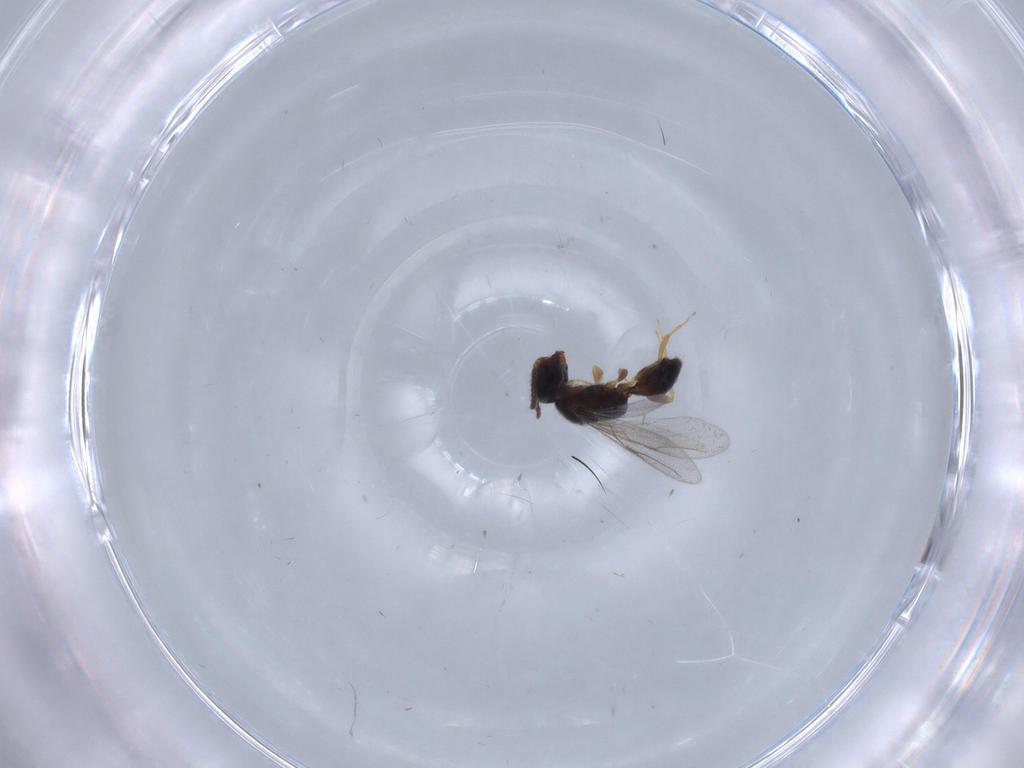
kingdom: Animalia
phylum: Arthropoda
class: Insecta
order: Hymenoptera
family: Bethylidae
